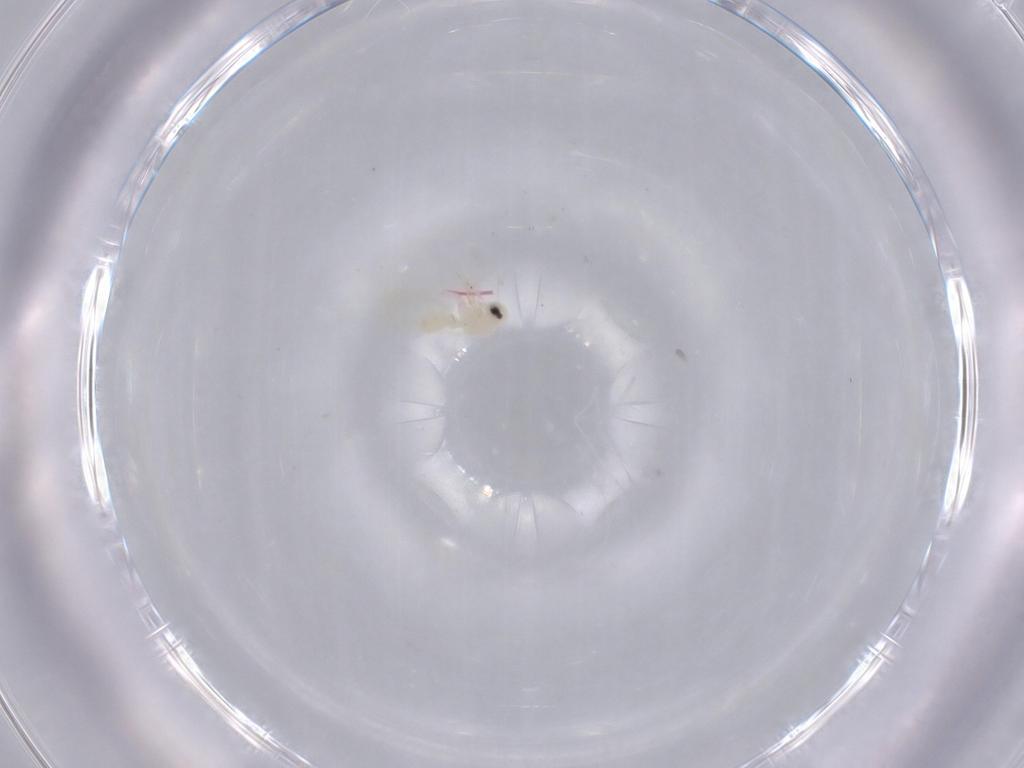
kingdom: Animalia
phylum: Arthropoda
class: Insecta
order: Hemiptera
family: Aleyrodidae
